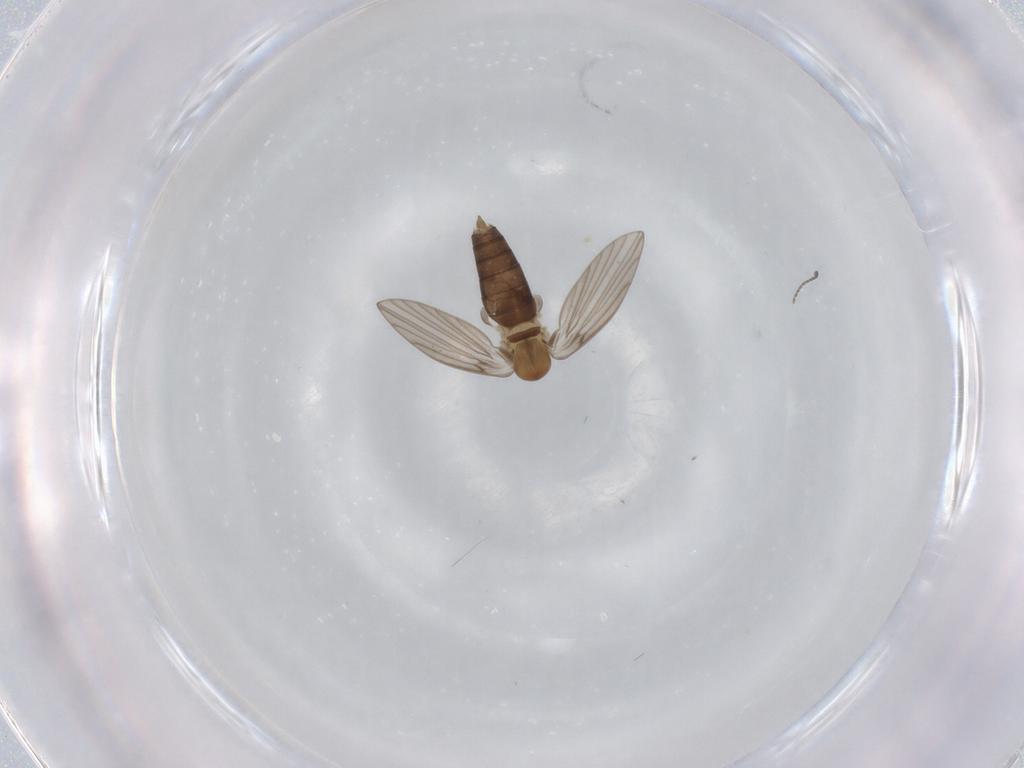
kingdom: Animalia
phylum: Arthropoda
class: Insecta
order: Diptera
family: Psychodidae
